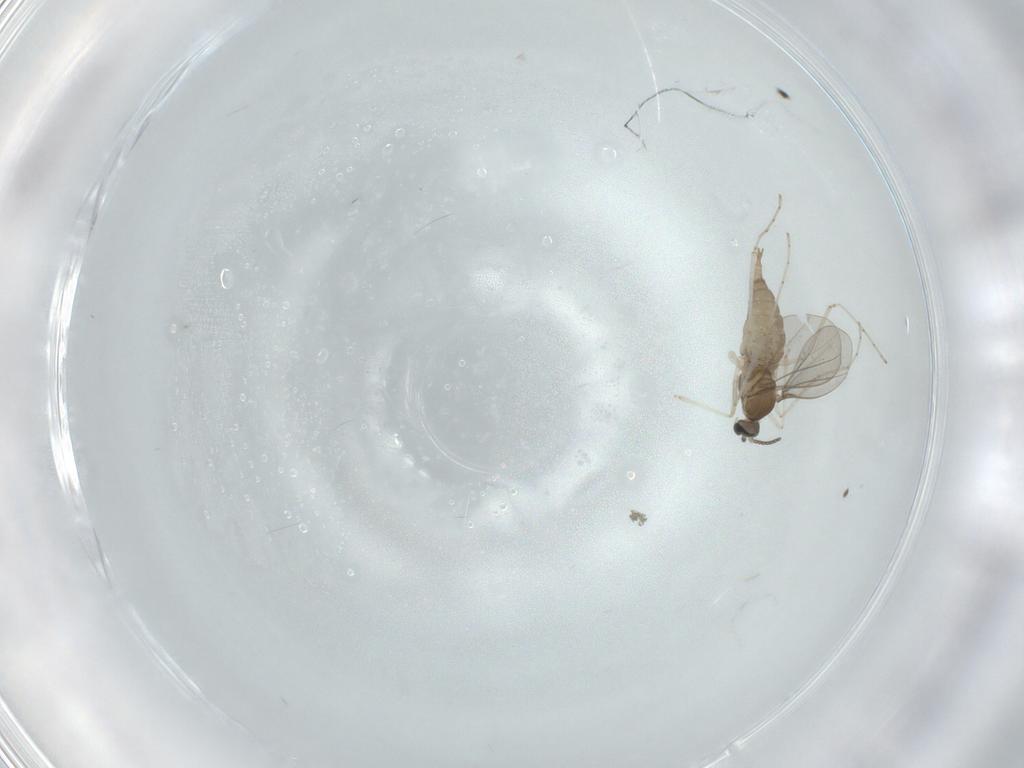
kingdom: Animalia
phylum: Arthropoda
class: Insecta
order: Diptera
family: Cecidomyiidae
